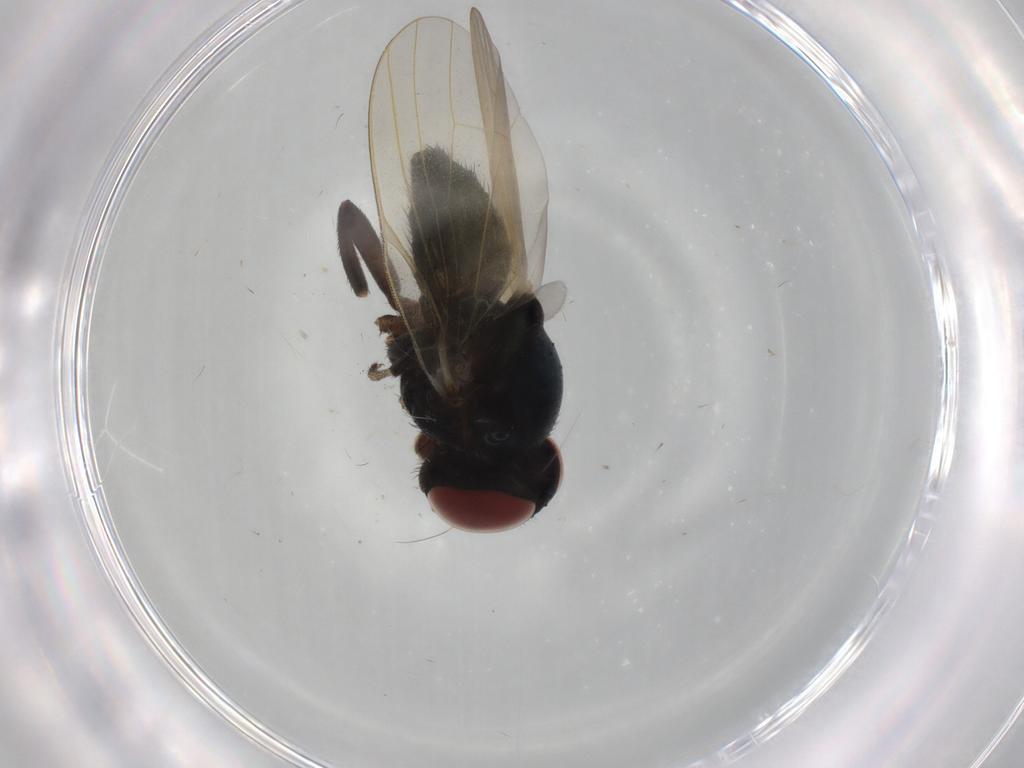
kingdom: Animalia
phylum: Arthropoda
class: Insecta
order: Diptera
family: Lonchaeidae
